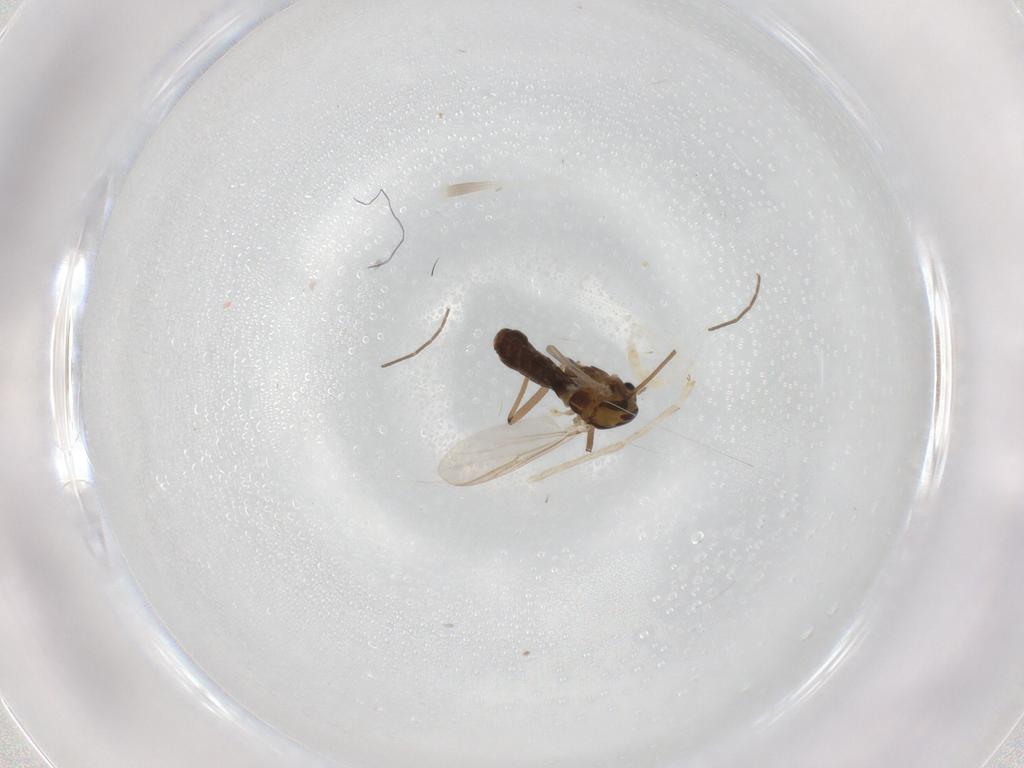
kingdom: Animalia
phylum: Arthropoda
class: Insecta
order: Diptera
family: Chironomidae
